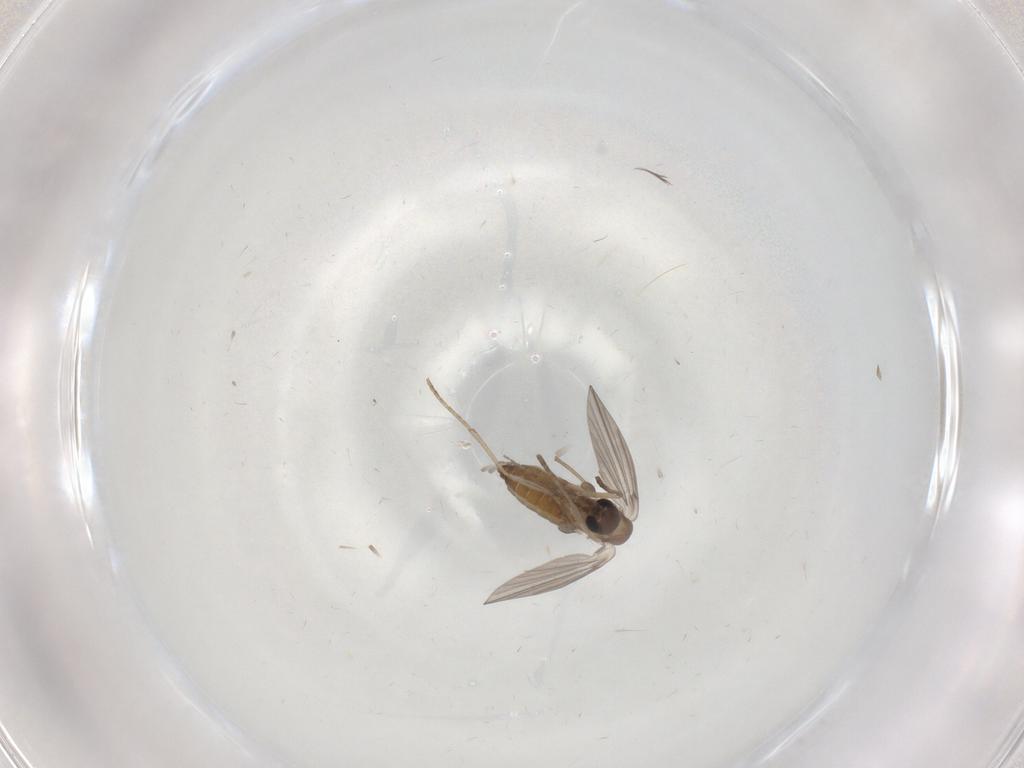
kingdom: Animalia
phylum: Arthropoda
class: Insecta
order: Diptera
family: Cecidomyiidae
